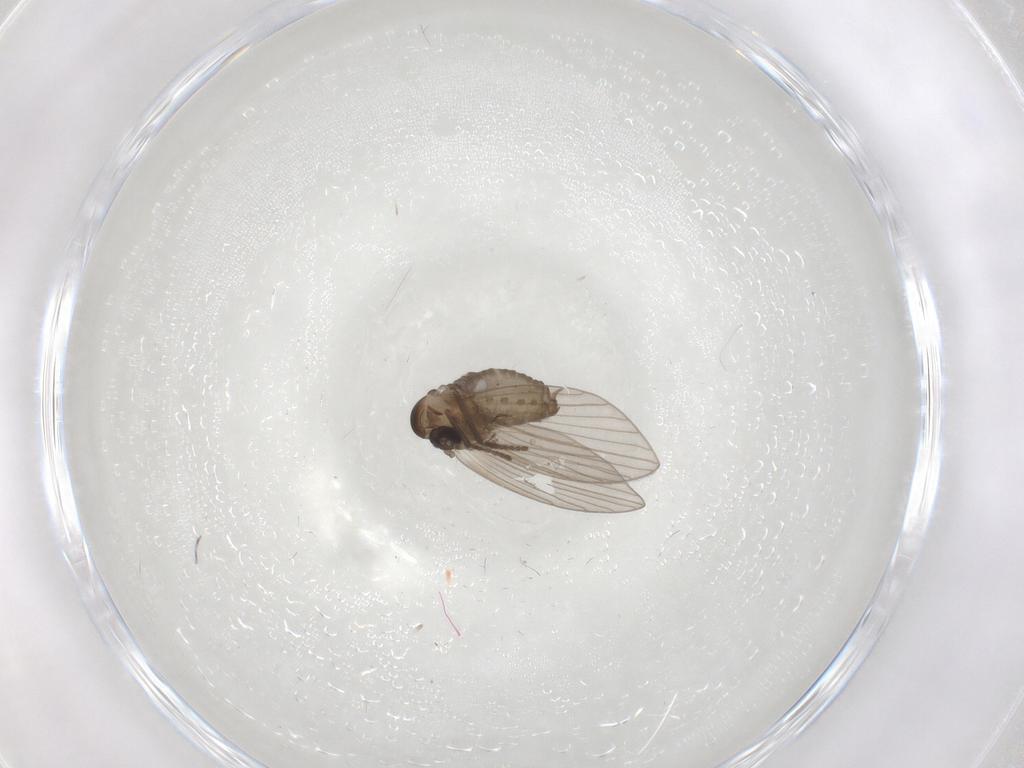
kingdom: Animalia
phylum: Arthropoda
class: Insecta
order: Diptera
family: Psychodidae
